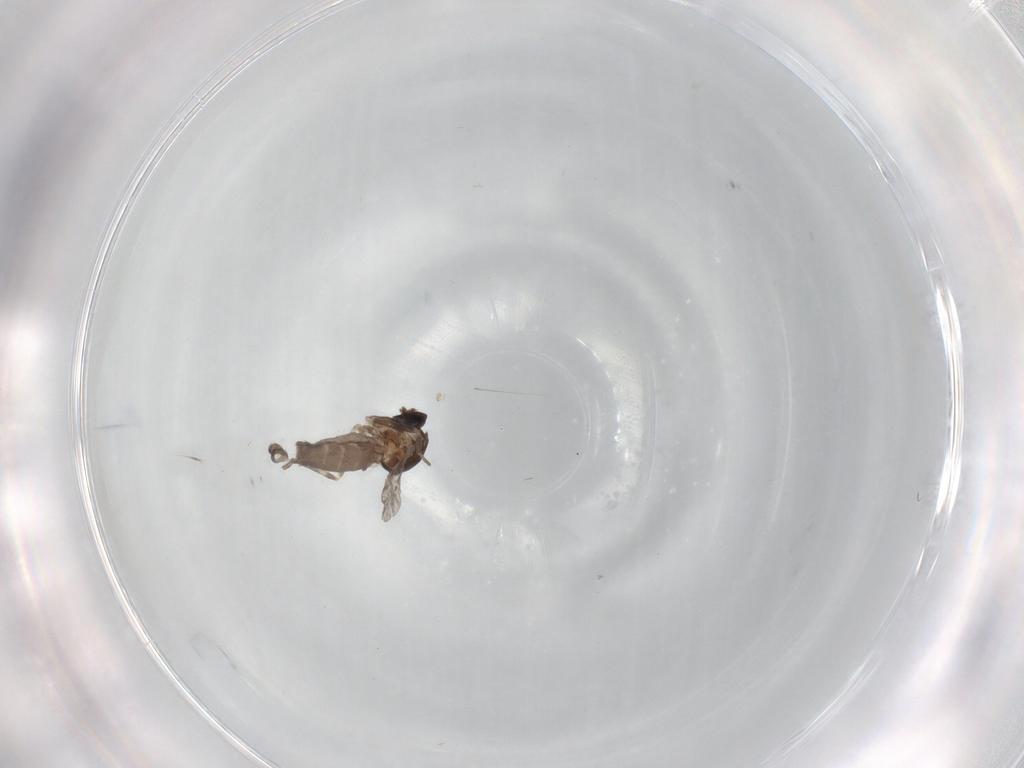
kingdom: Animalia
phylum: Arthropoda
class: Insecta
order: Diptera
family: Ceratopogonidae
